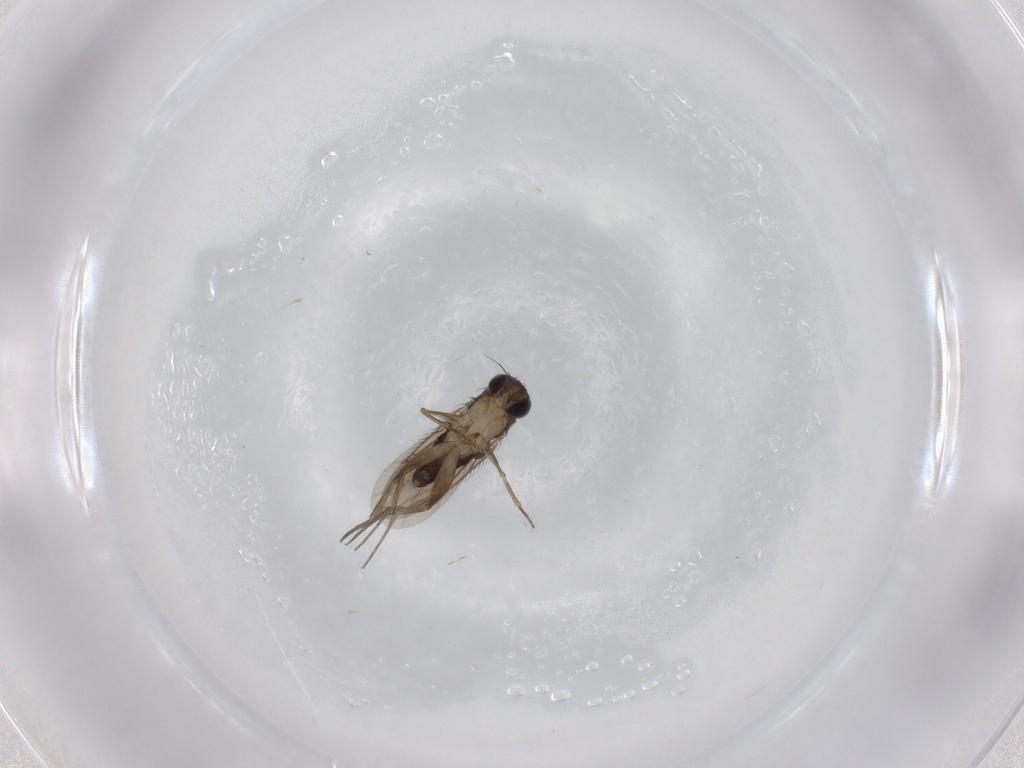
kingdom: Animalia
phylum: Arthropoda
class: Insecta
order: Diptera
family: Phoridae
